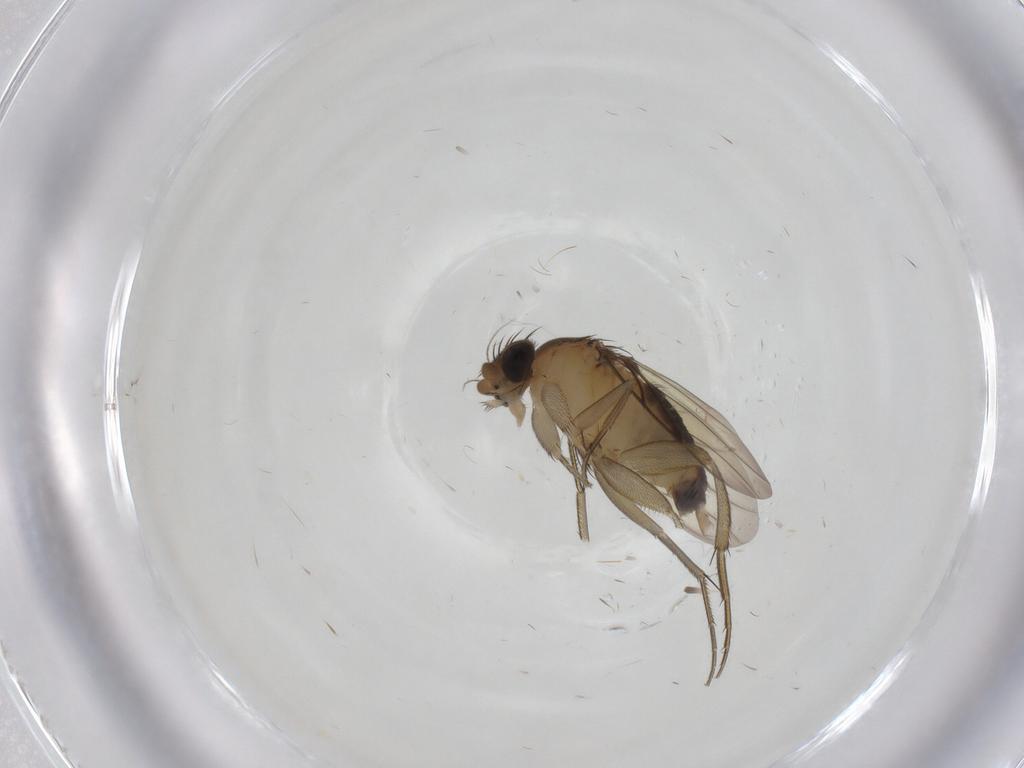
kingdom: Animalia
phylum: Arthropoda
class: Insecta
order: Diptera
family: Phoridae
